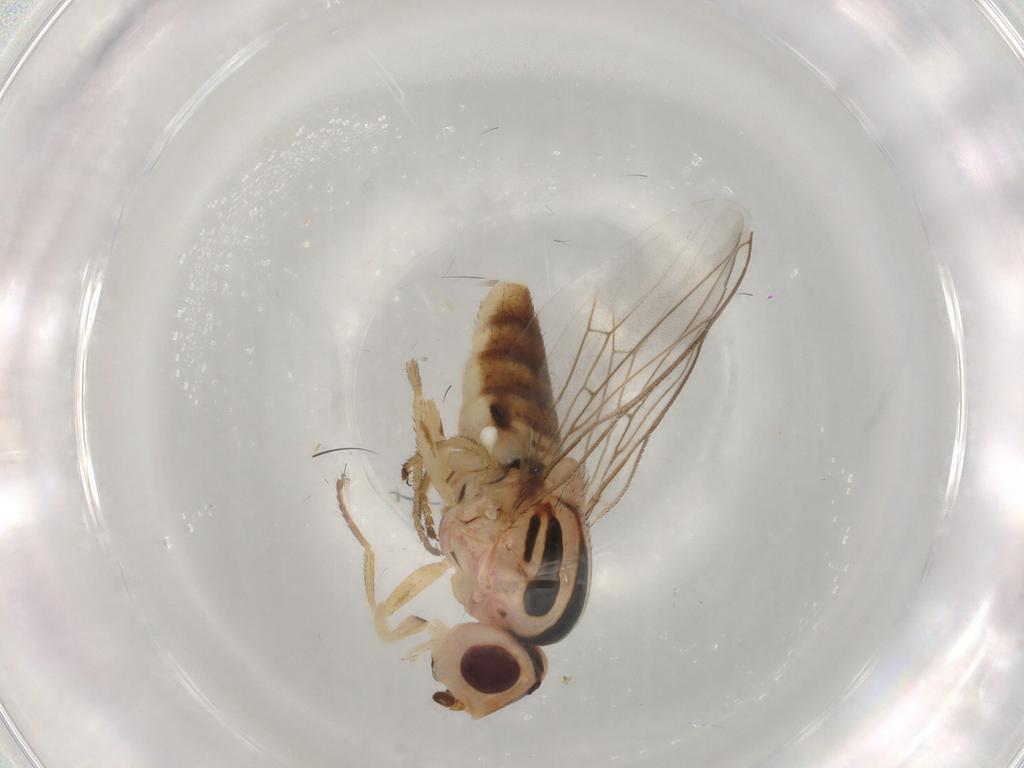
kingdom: Animalia
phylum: Arthropoda
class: Insecta
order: Diptera
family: Chloropidae
